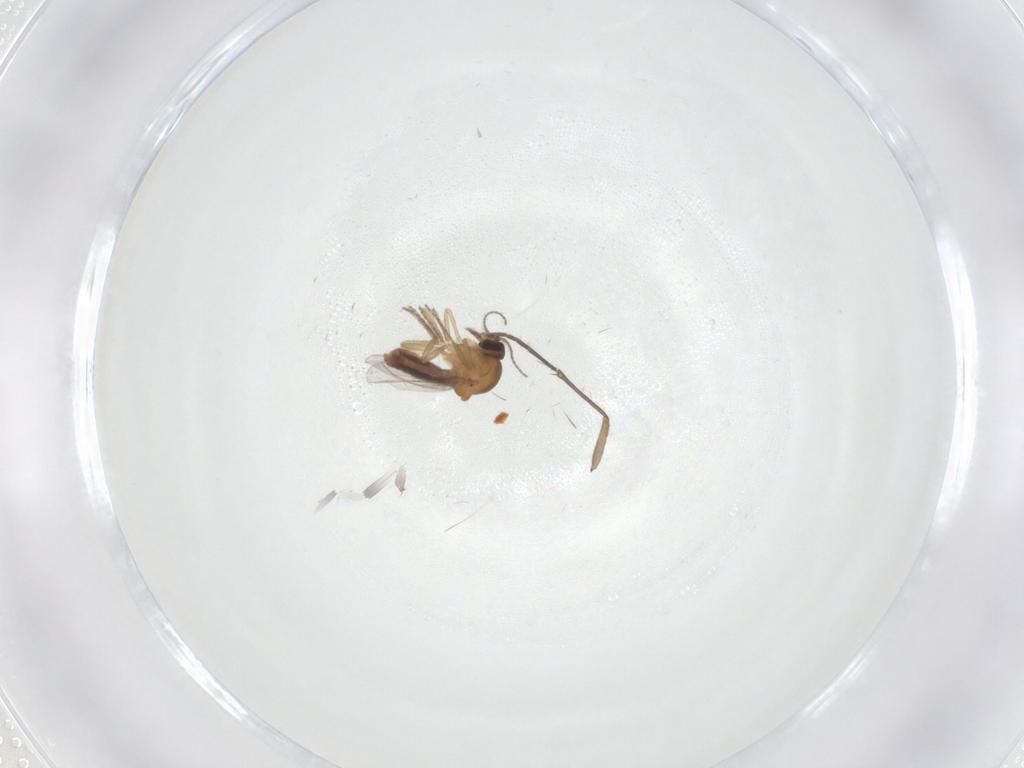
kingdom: Animalia
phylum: Arthropoda
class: Insecta
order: Diptera
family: Ceratopogonidae
